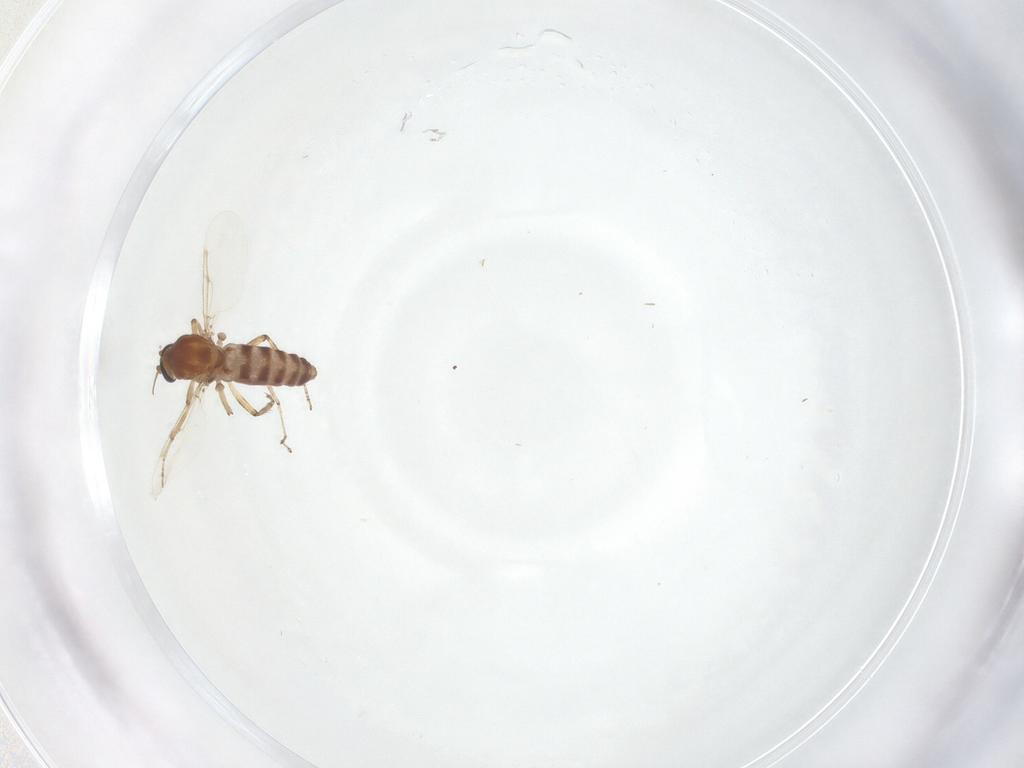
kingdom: Animalia
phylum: Arthropoda
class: Insecta
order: Diptera
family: Ceratopogonidae
